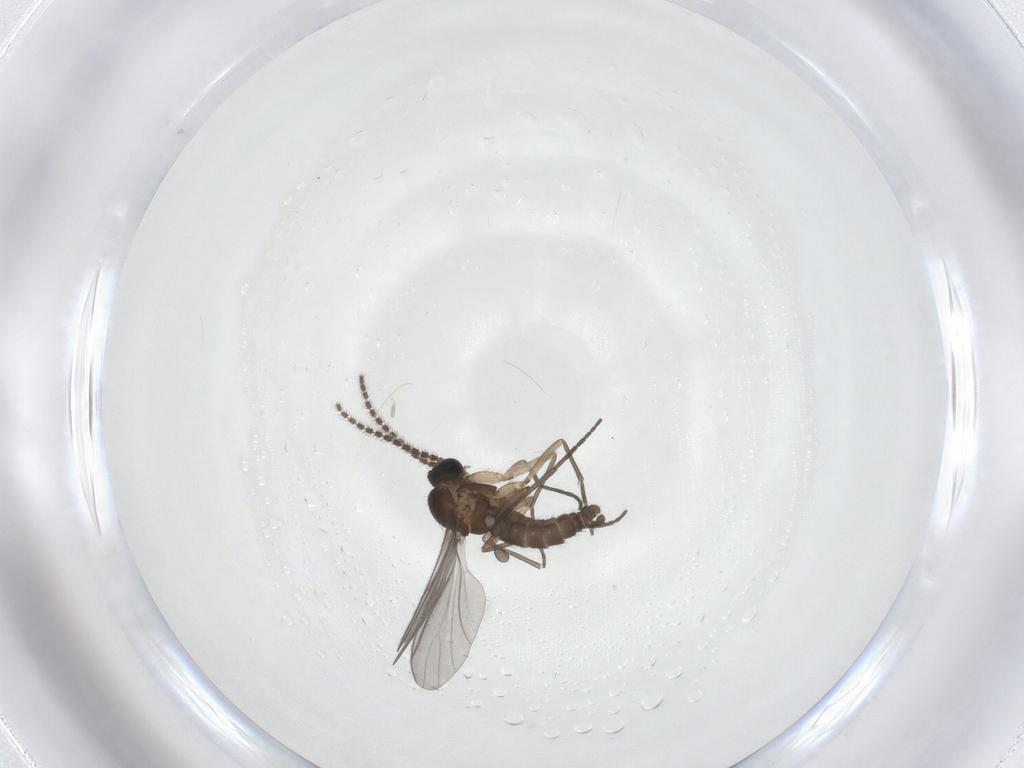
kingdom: Animalia
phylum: Arthropoda
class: Insecta
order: Diptera
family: Sciaridae
